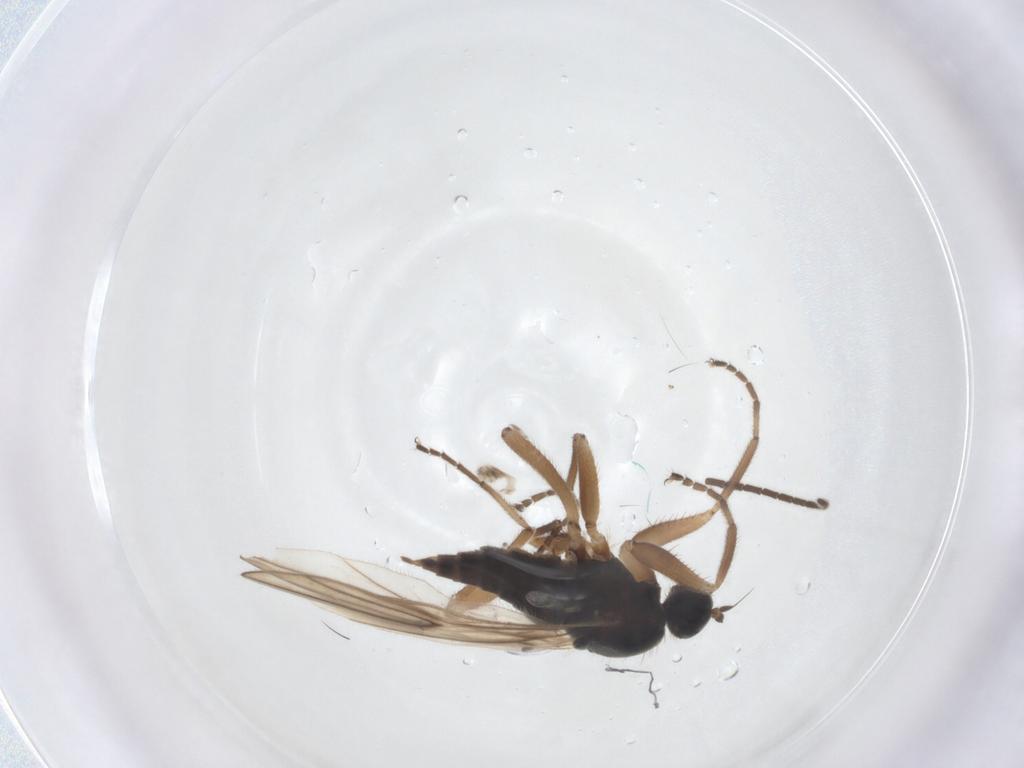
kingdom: Animalia
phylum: Arthropoda
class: Insecta
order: Diptera
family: Hybotidae
